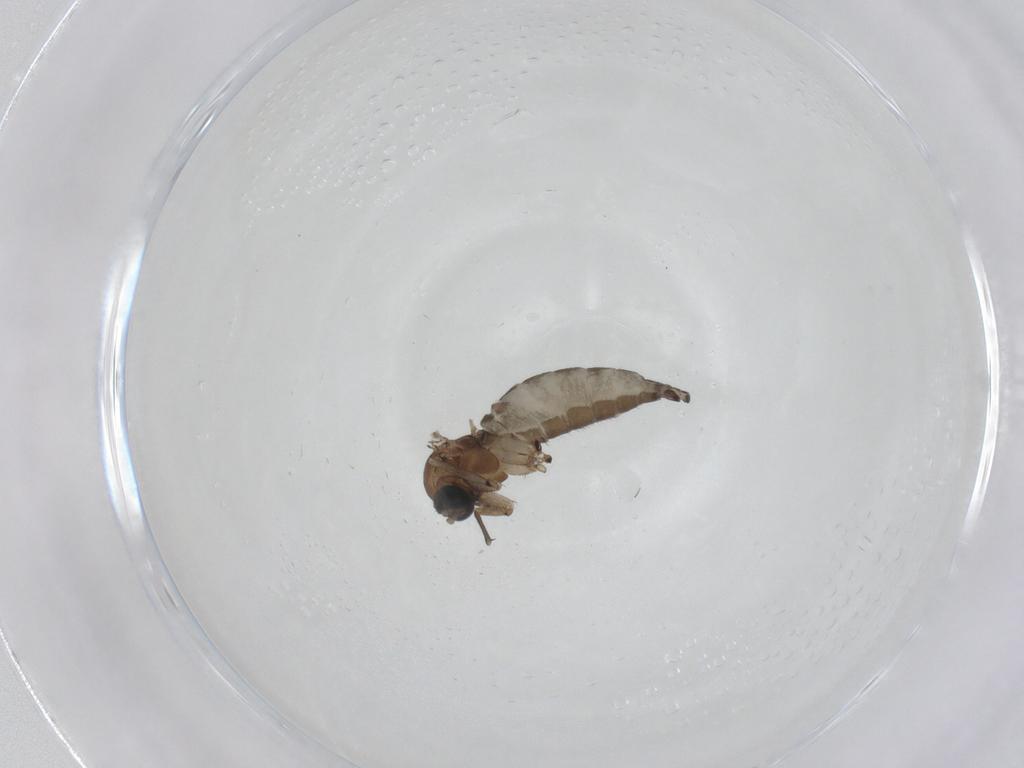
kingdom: Animalia
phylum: Arthropoda
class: Insecta
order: Diptera
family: Sciaridae
